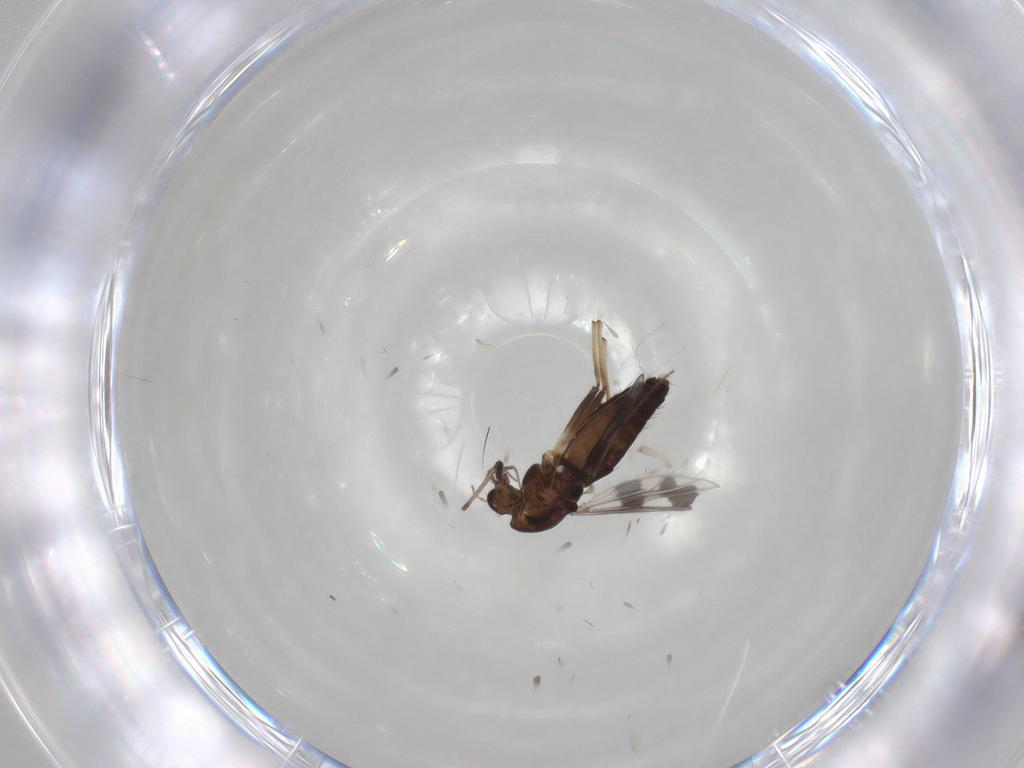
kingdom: Animalia
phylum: Arthropoda
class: Insecta
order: Diptera
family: Chironomidae
